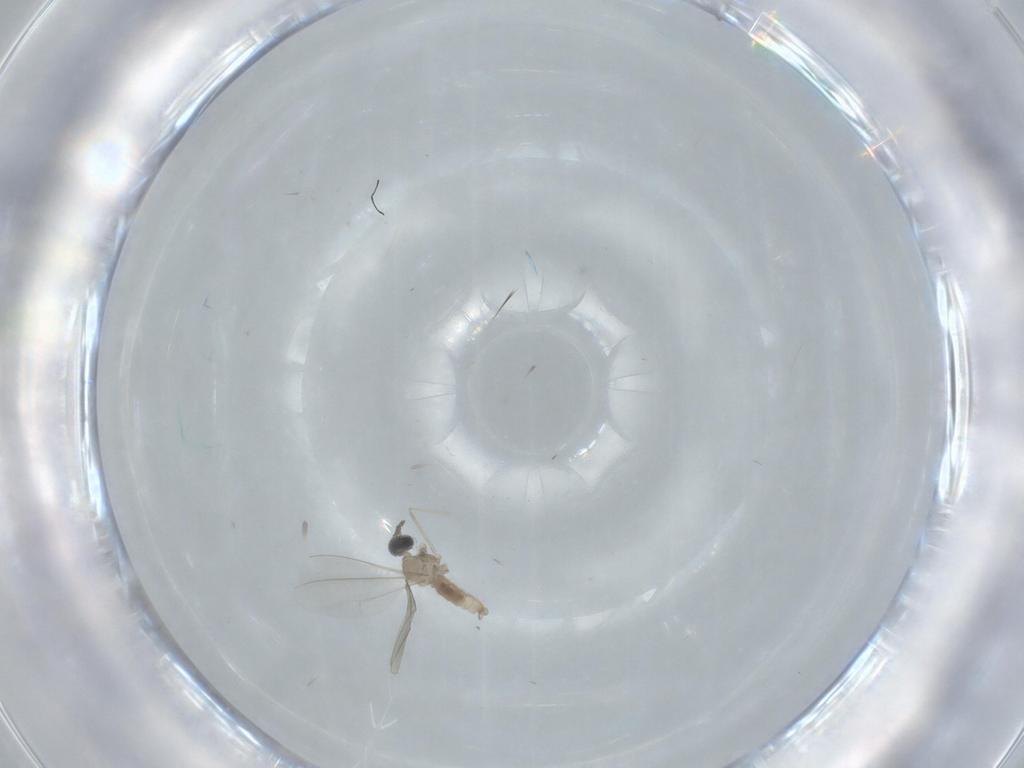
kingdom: Animalia
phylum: Arthropoda
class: Insecta
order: Diptera
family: Cecidomyiidae
